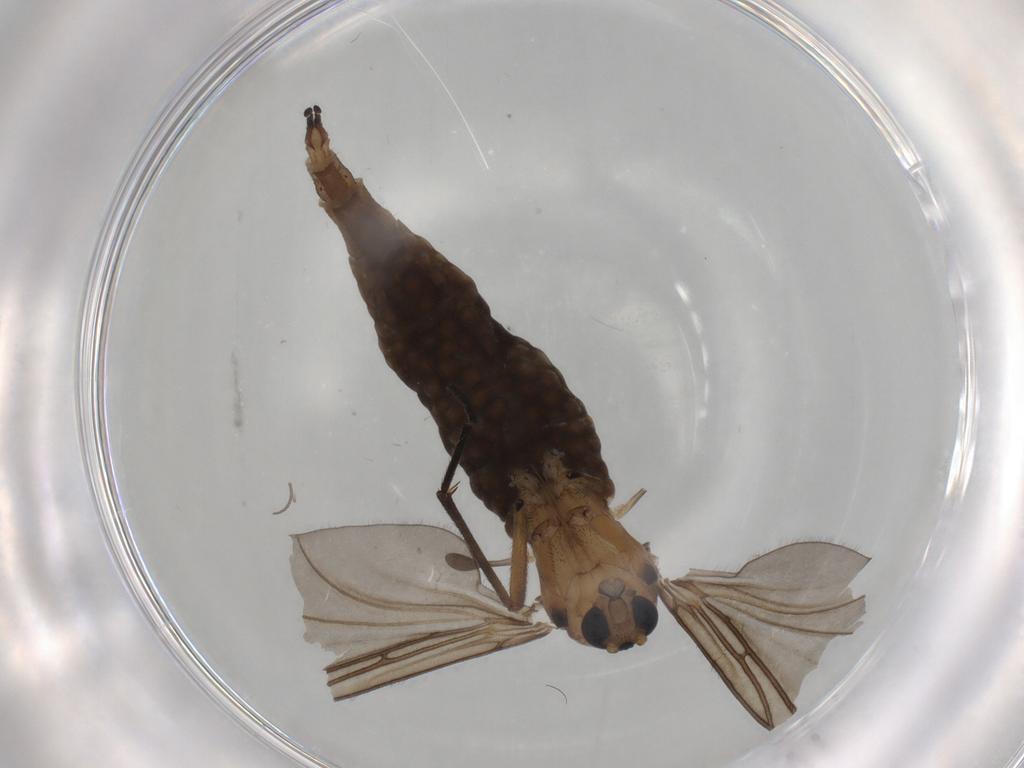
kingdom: Animalia
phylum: Arthropoda
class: Insecta
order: Diptera
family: Sciaridae
